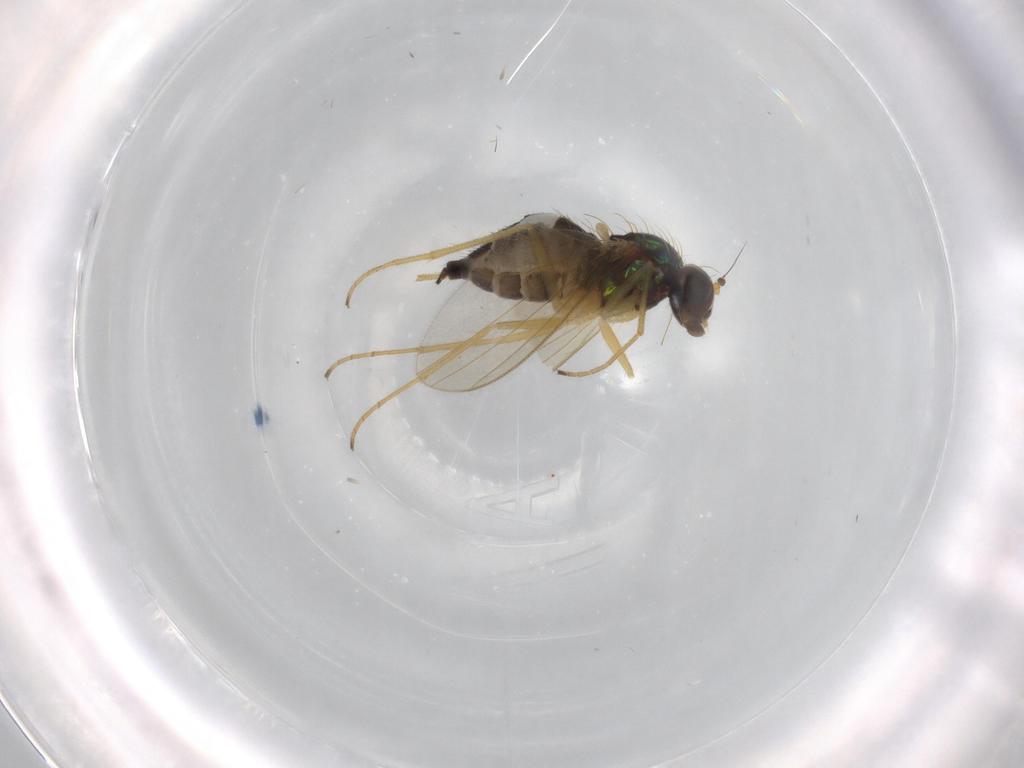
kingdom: Animalia
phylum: Arthropoda
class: Insecta
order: Diptera
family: Dolichopodidae
